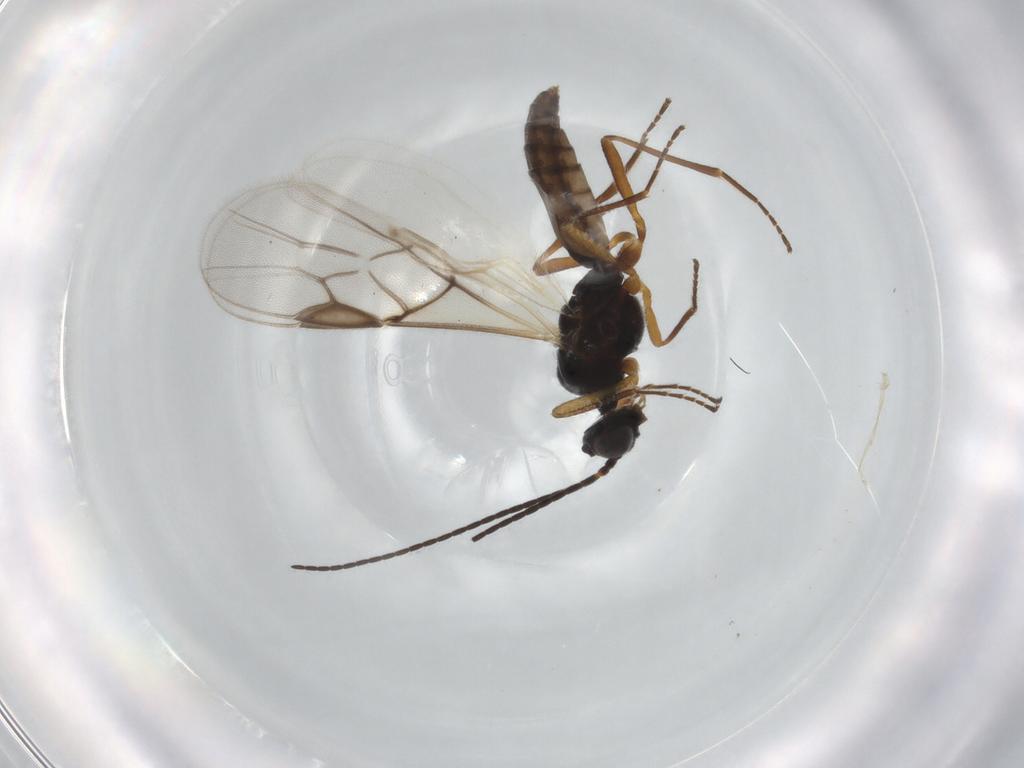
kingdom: Animalia
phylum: Arthropoda
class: Insecta
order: Hymenoptera
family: Braconidae
